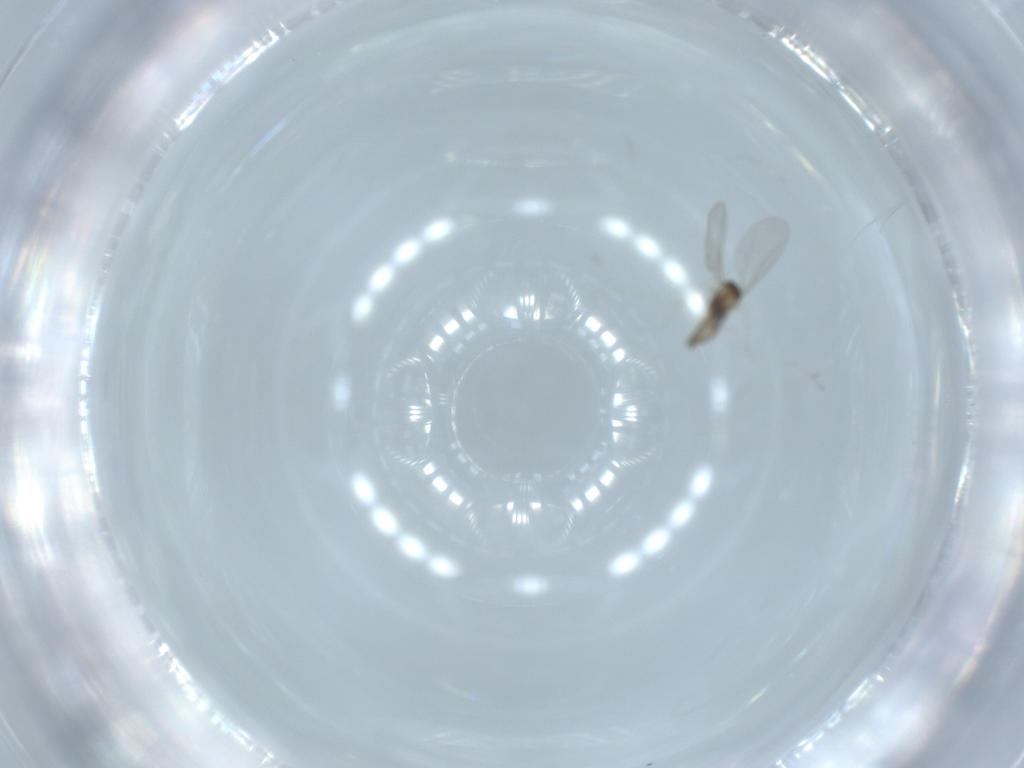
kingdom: Animalia
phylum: Arthropoda
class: Insecta
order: Diptera
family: Cecidomyiidae
